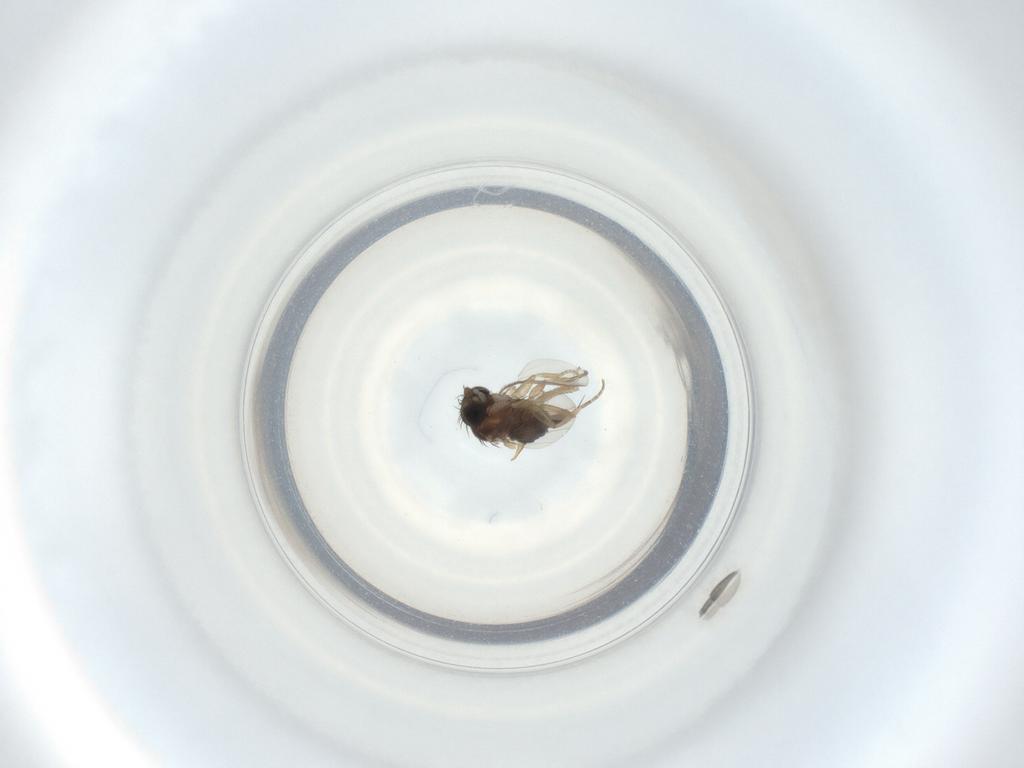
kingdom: Animalia
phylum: Arthropoda
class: Insecta
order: Diptera
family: Phoridae
